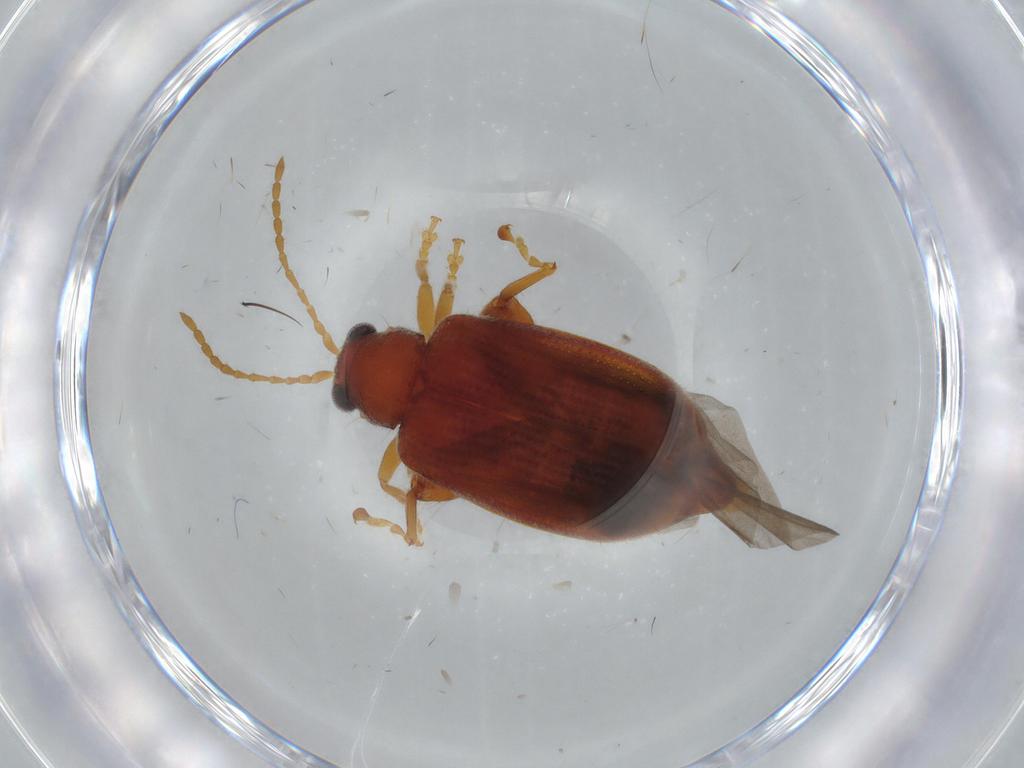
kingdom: Animalia
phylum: Arthropoda
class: Insecta
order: Coleoptera
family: Chrysomelidae
